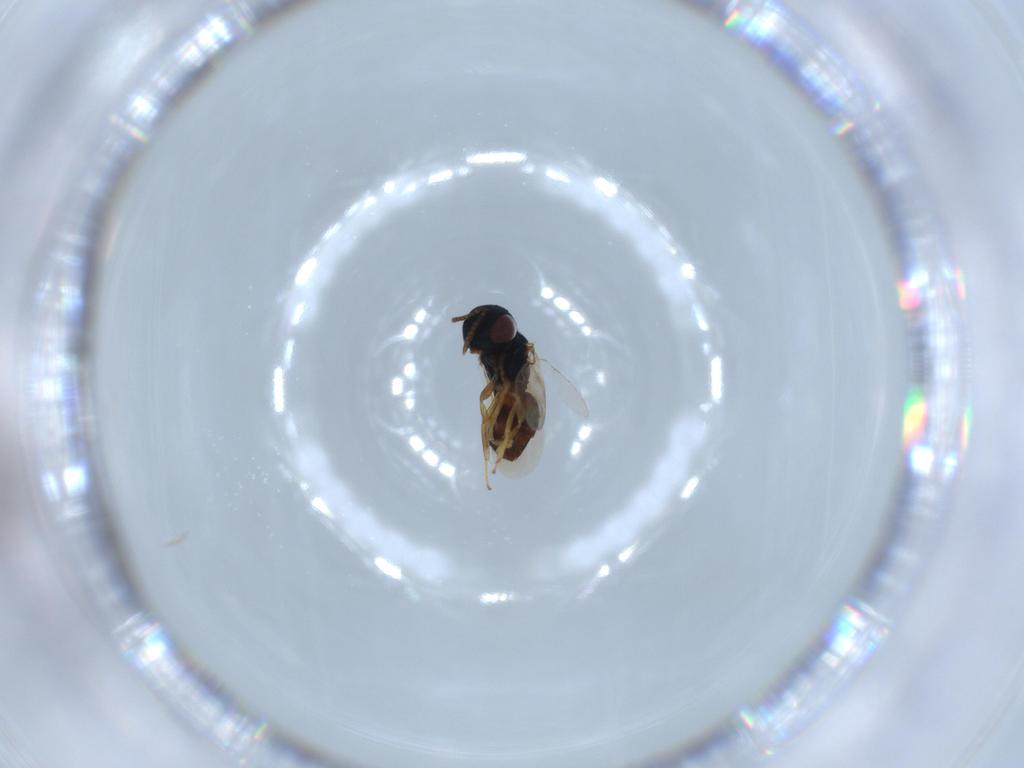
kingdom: Animalia
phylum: Arthropoda
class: Insecta
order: Hymenoptera
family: Pteromalidae
